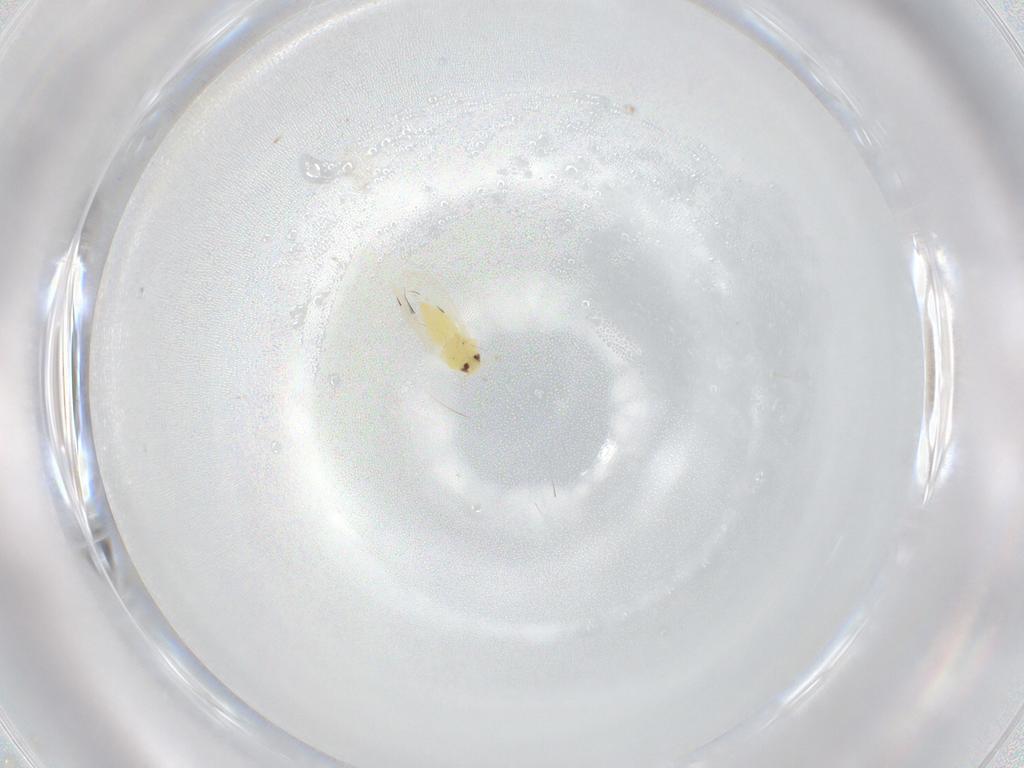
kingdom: Animalia
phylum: Arthropoda
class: Insecta
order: Hemiptera
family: Aleyrodidae
